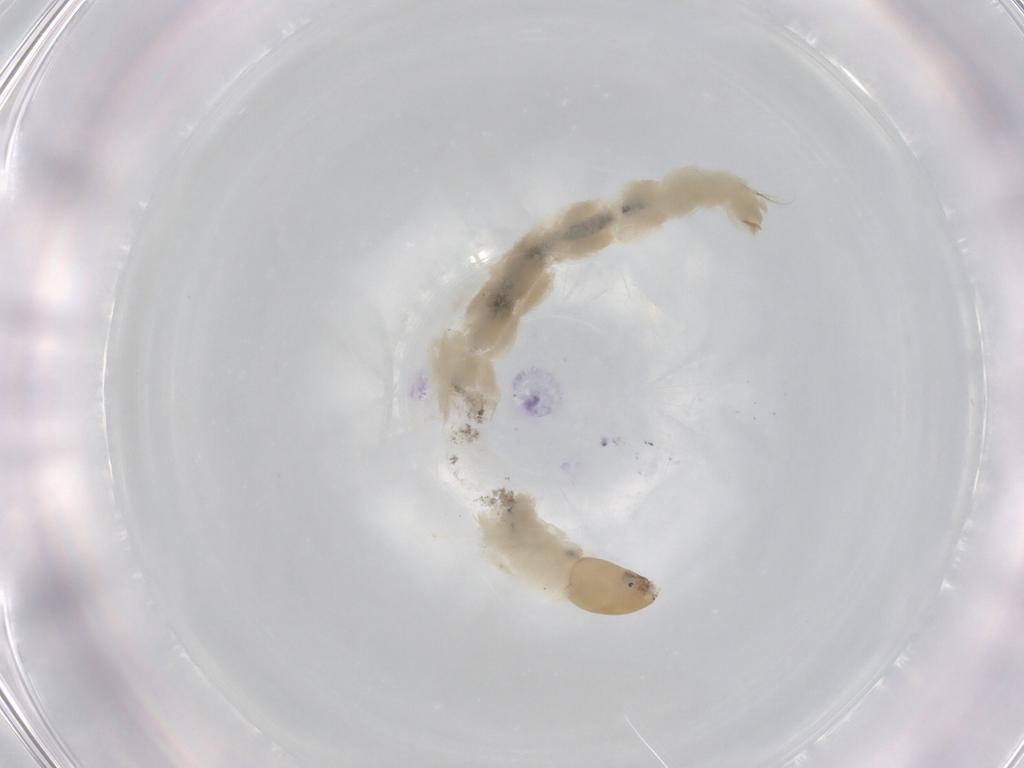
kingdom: Animalia
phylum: Arthropoda
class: Insecta
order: Diptera
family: Chironomidae
